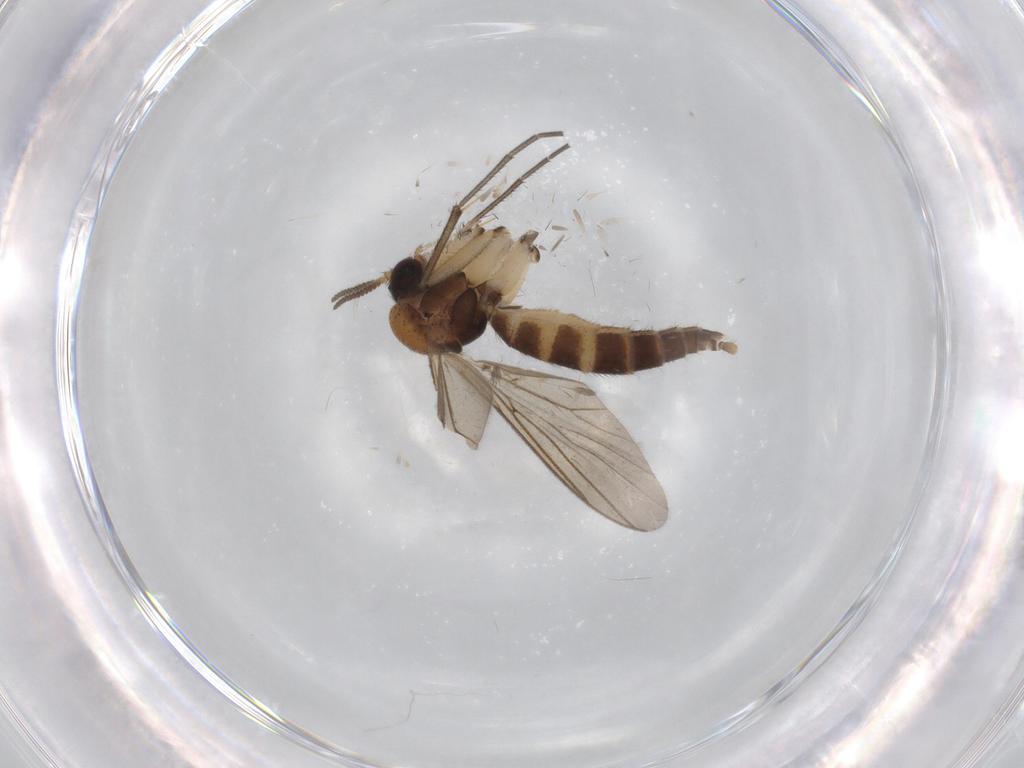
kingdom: Animalia
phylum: Arthropoda
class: Insecta
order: Diptera
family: Mycetophilidae
